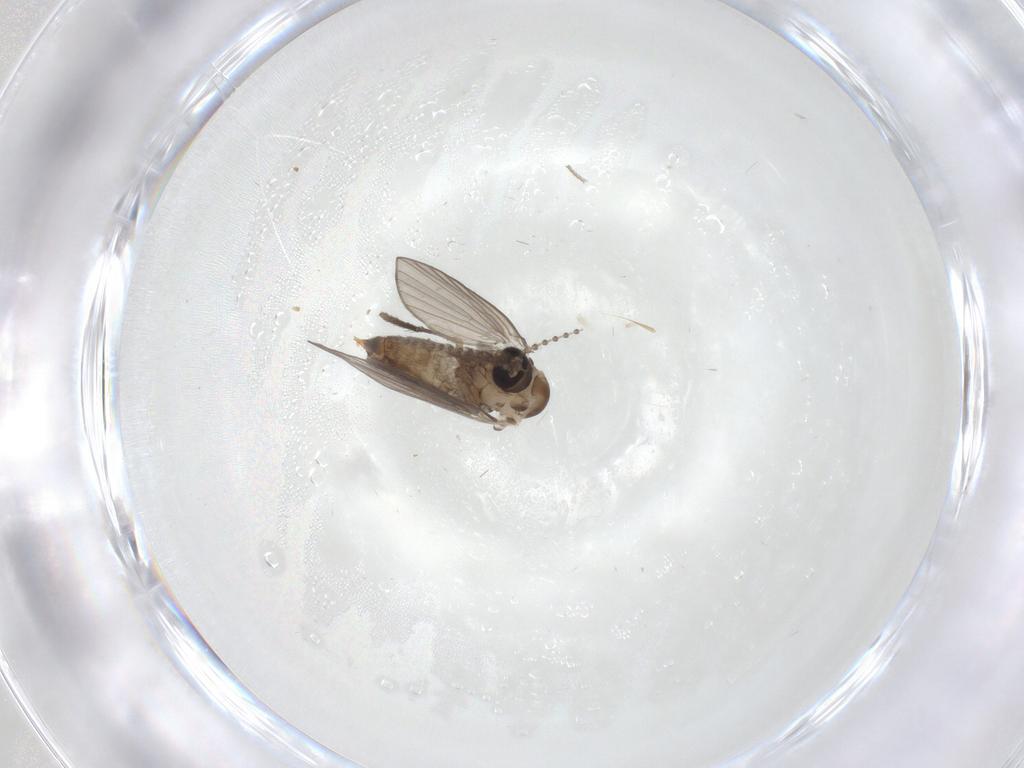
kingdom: Animalia
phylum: Arthropoda
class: Insecta
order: Diptera
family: Psychodidae
